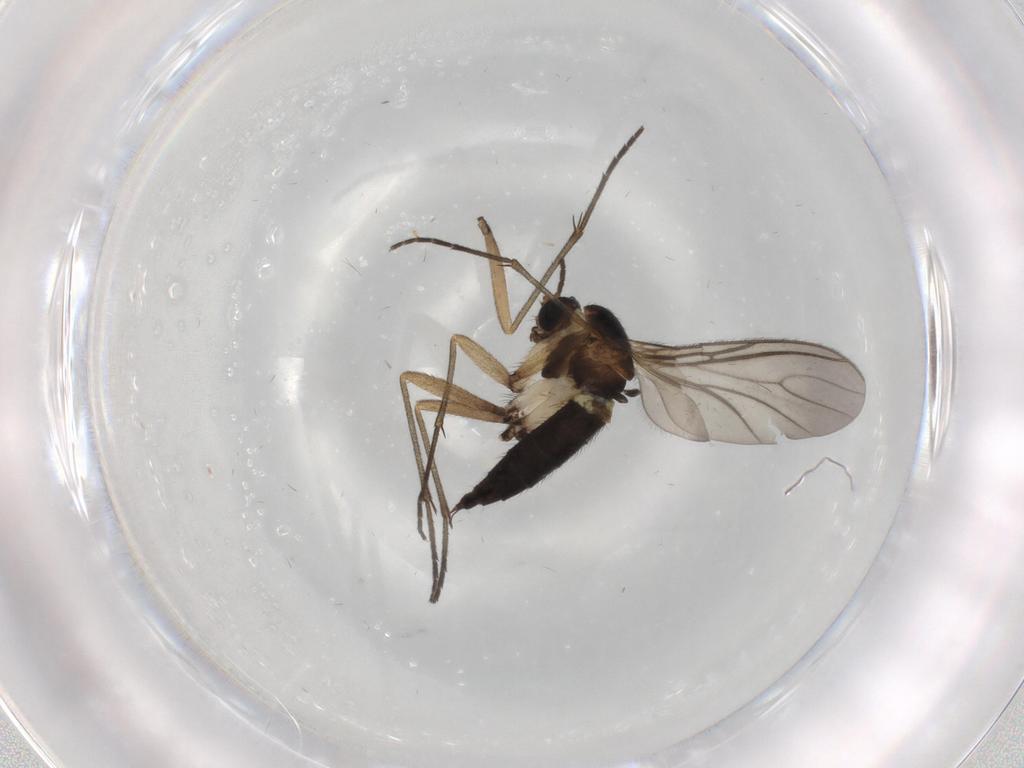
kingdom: Animalia
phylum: Arthropoda
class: Insecta
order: Diptera
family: Sciaridae
